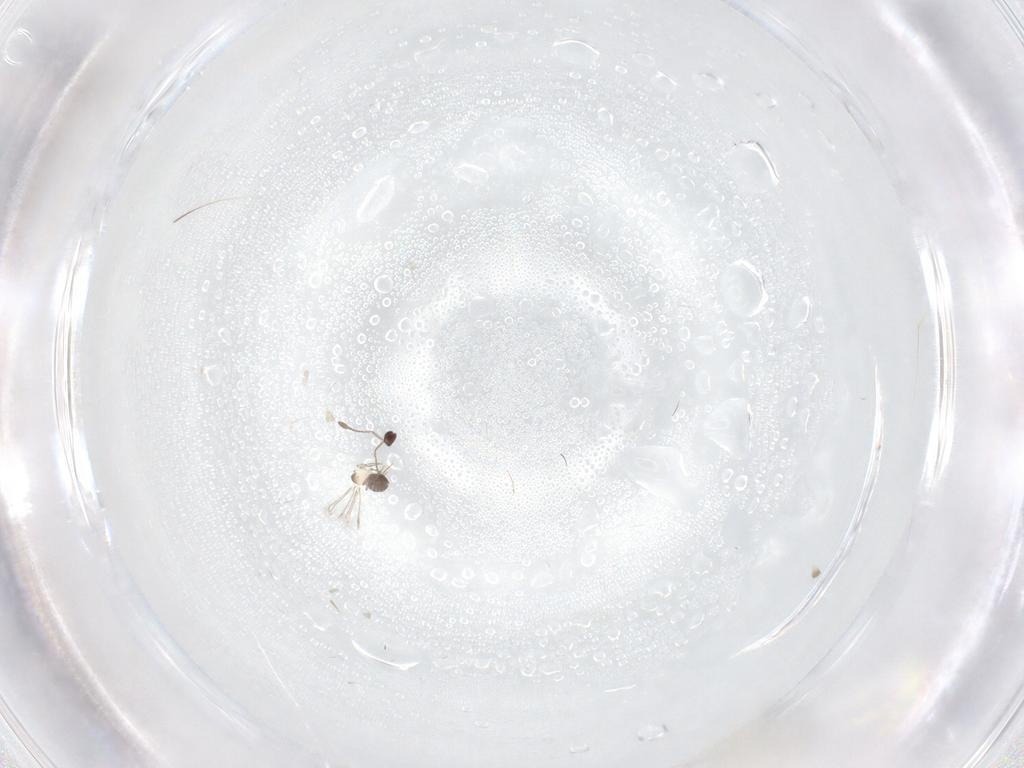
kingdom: Animalia
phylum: Arthropoda
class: Insecta
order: Hymenoptera
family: Mymaridae
